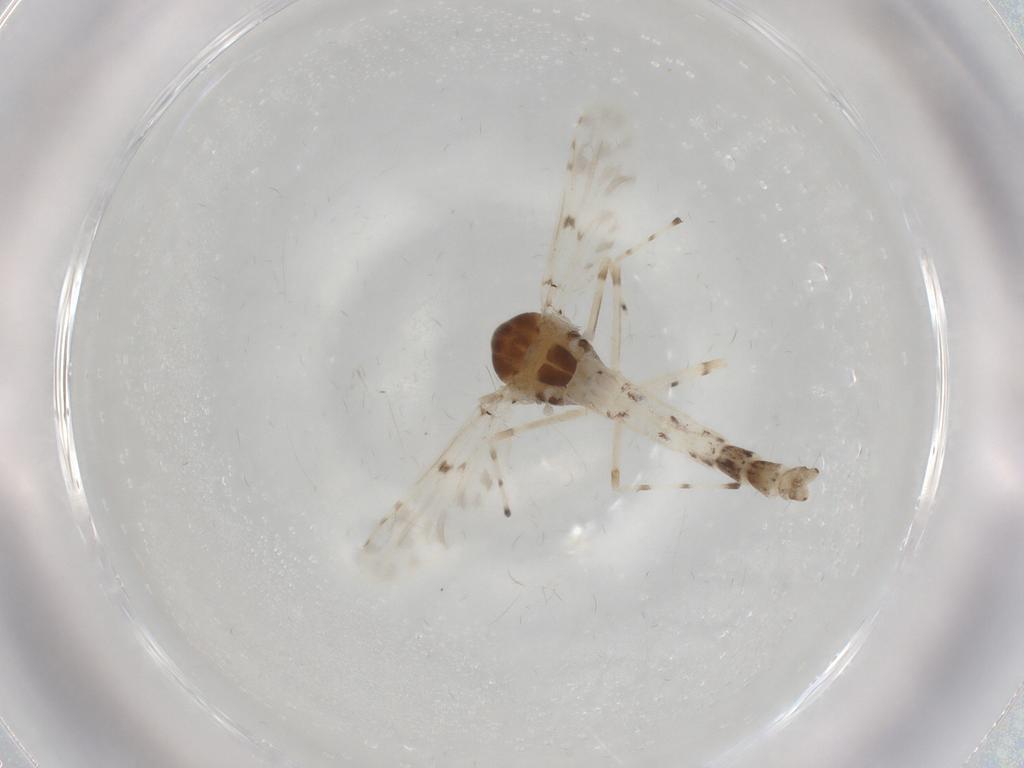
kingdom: Animalia
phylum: Arthropoda
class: Insecta
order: Diptera
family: Chironomidae
